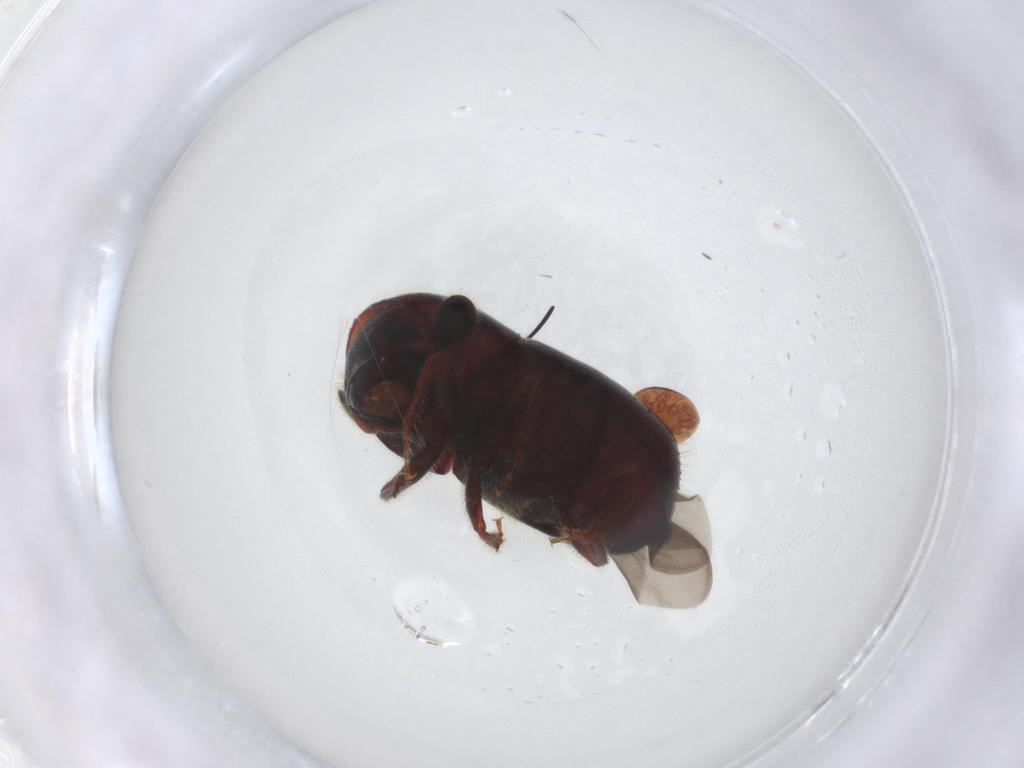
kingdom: Animalia
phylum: Arthropoda
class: Insecta
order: Coleoptera
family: Curculionidae
